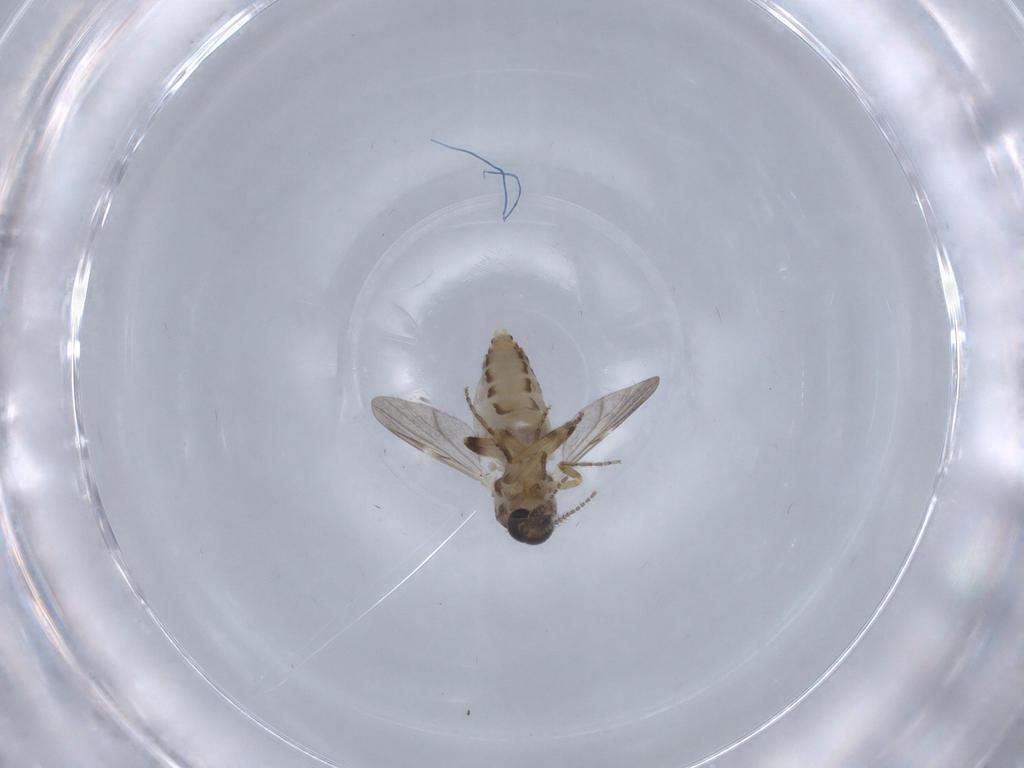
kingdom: Animalia
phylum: Arthropoda
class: Insecta
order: Diptera
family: Ceratopogonidae
